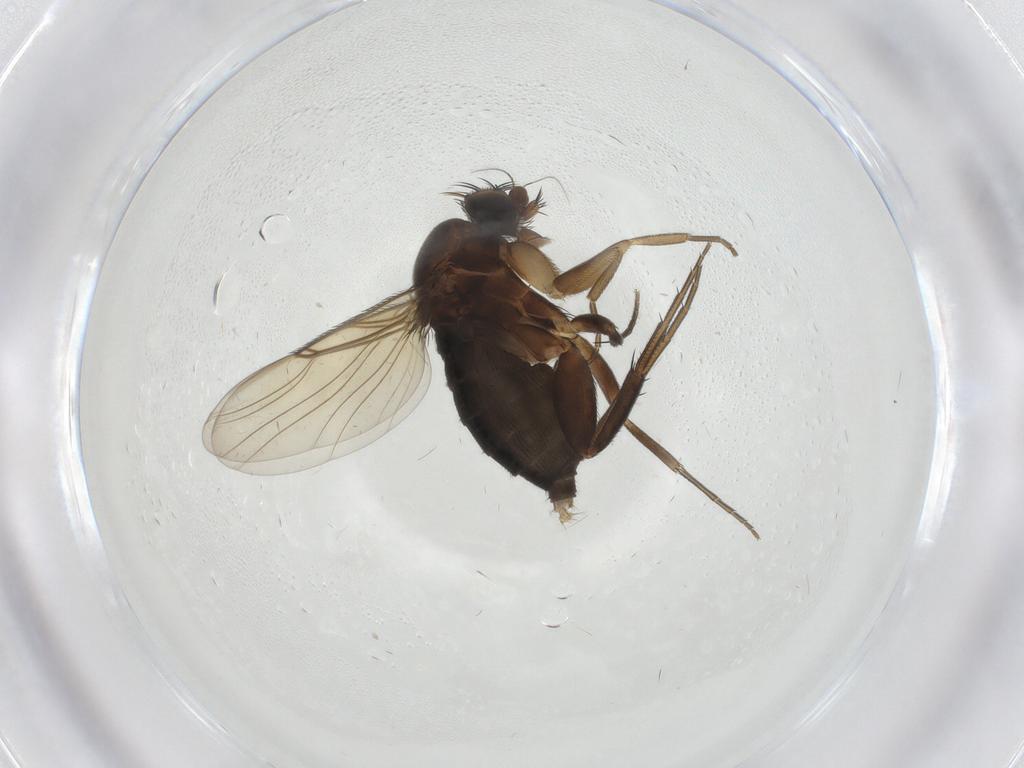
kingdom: Animalia
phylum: Arthropoda
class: Insecta
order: Diptera
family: Phoridae
